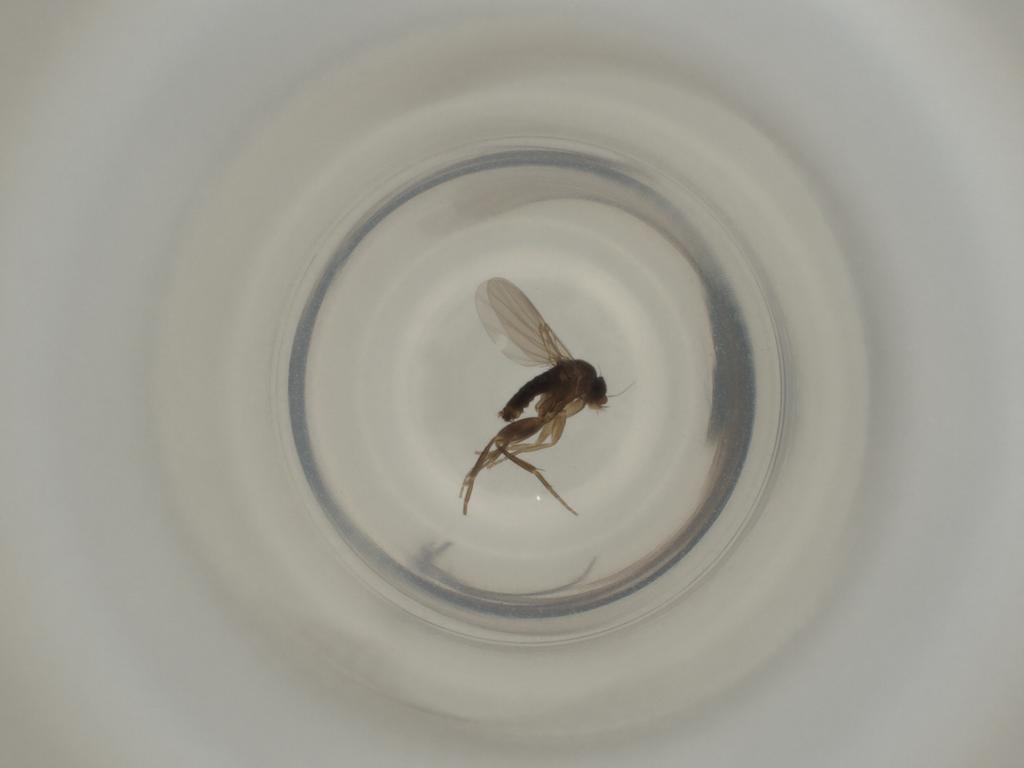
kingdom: Animalia
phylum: Arthropoda
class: Insecta
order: Diptera
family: Phoridae
